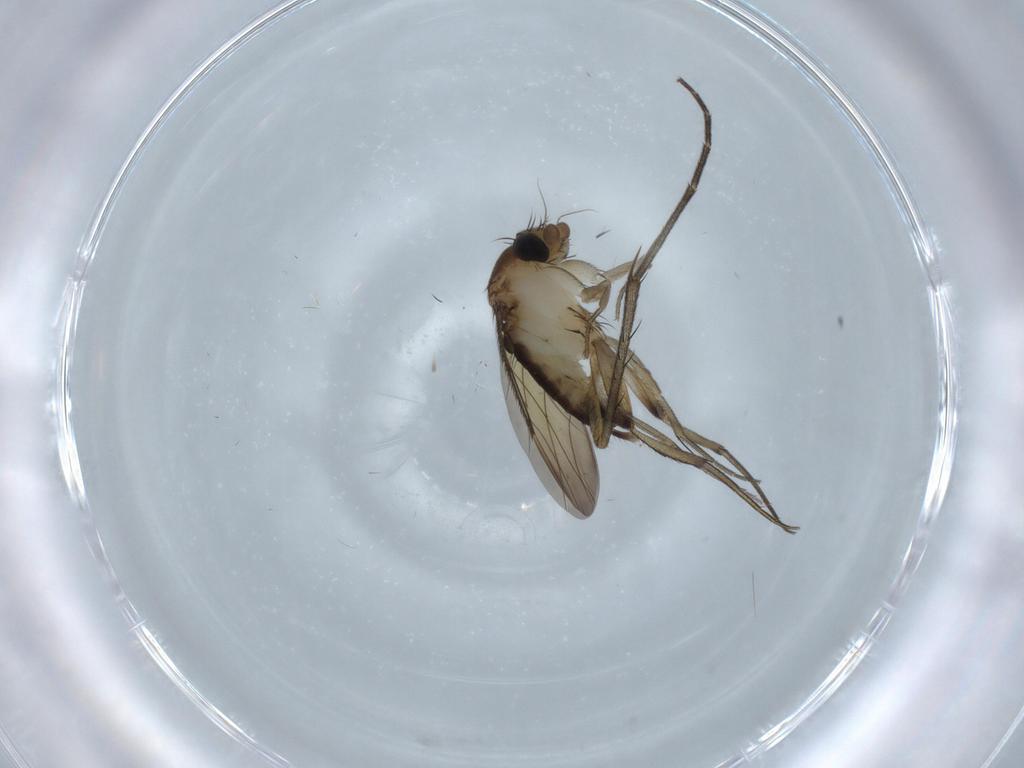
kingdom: Animalia
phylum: Arthropoda
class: Insecta
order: Diptera
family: Phoridae
